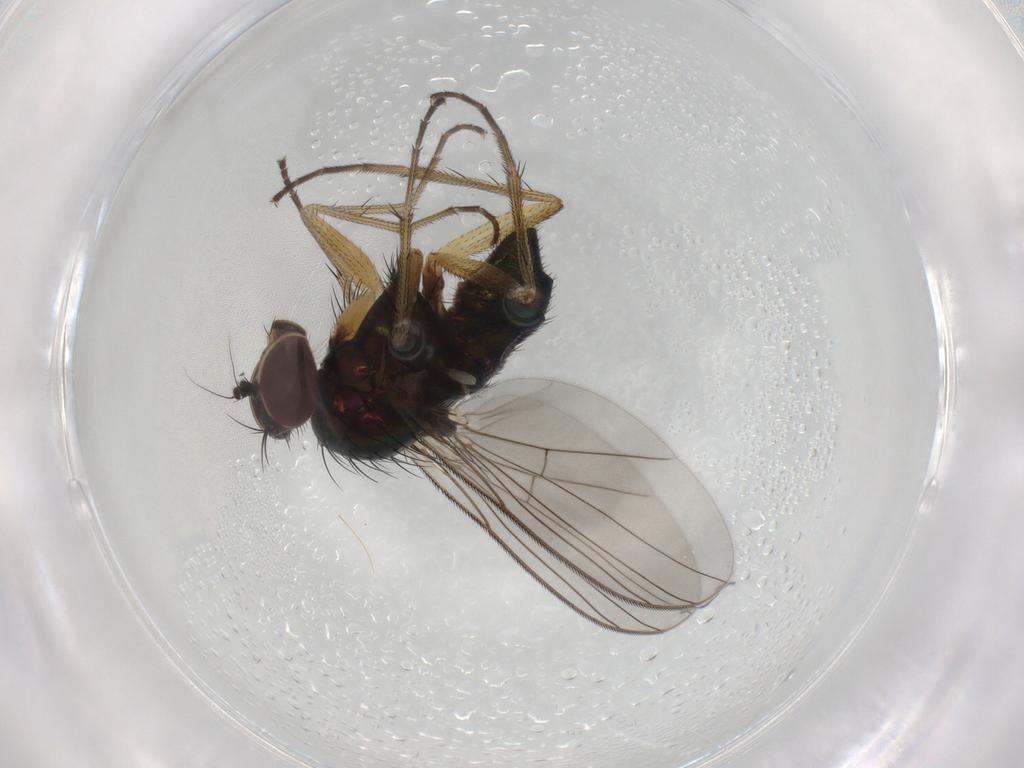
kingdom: Animalia
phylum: Arthropoda
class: Insecta
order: Diptera
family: Dolichopodidae
